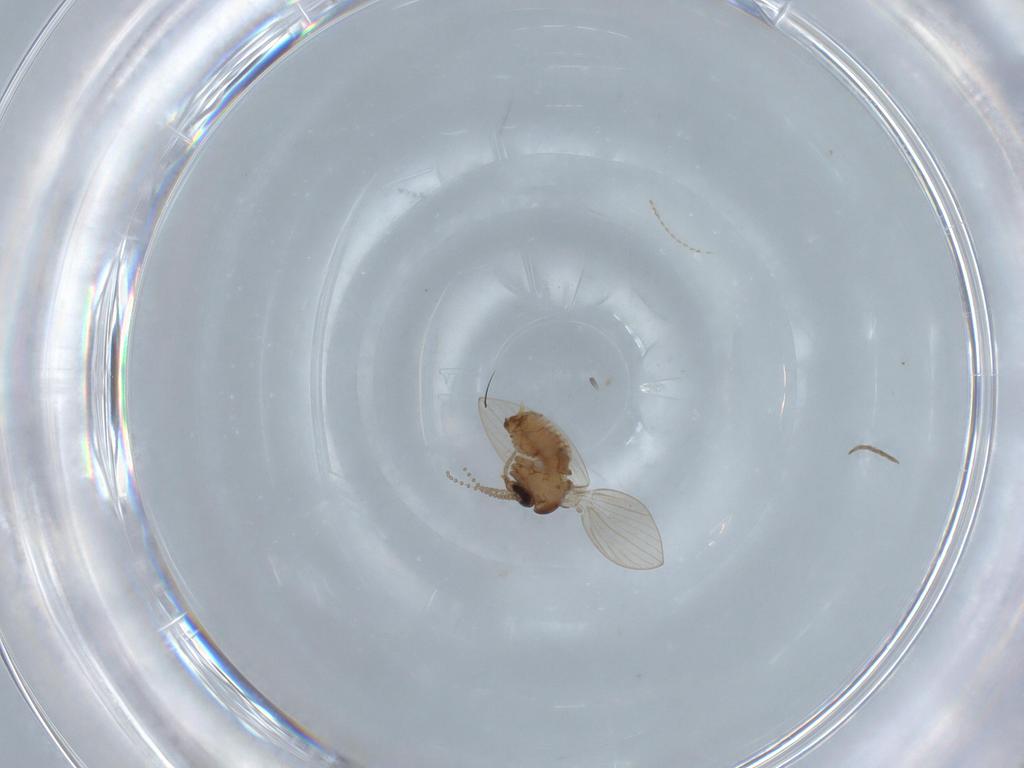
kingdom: Animalia
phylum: Arthropoda
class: Insecta
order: Diptera
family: Chironomidae
